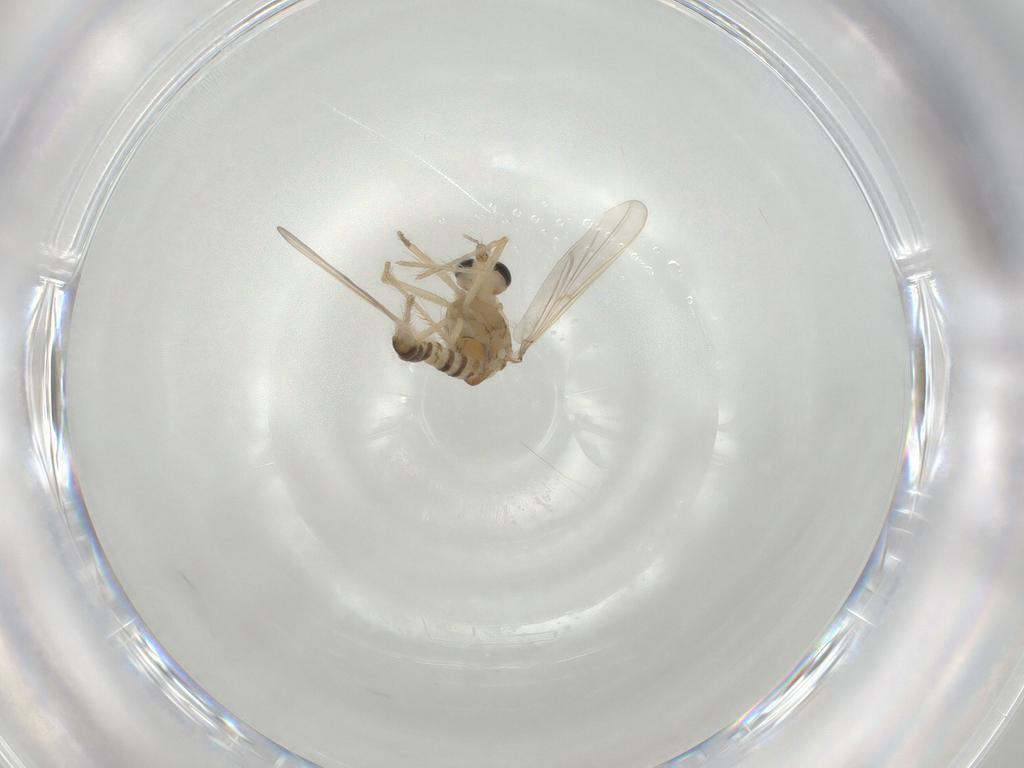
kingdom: Animalia
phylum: Arthropoda
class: Insecta
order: Diptera
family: Chironomidae
